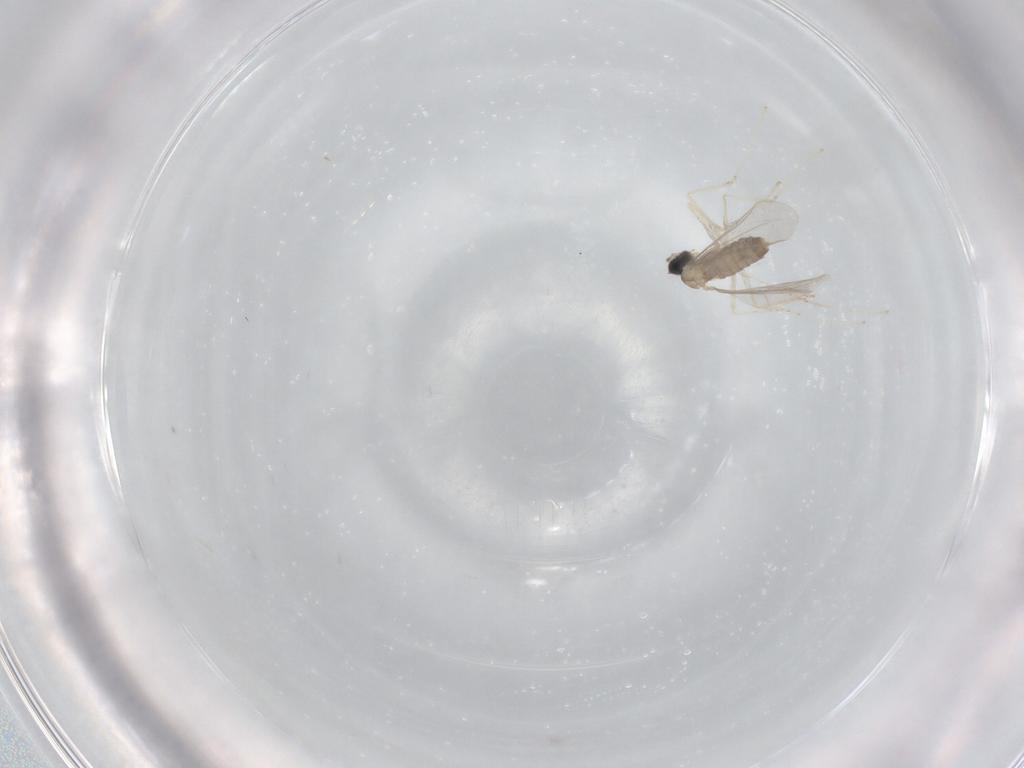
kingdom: Animalia
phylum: Arthropoda
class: Insecta
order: Diptera
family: Cecidomyiidae
